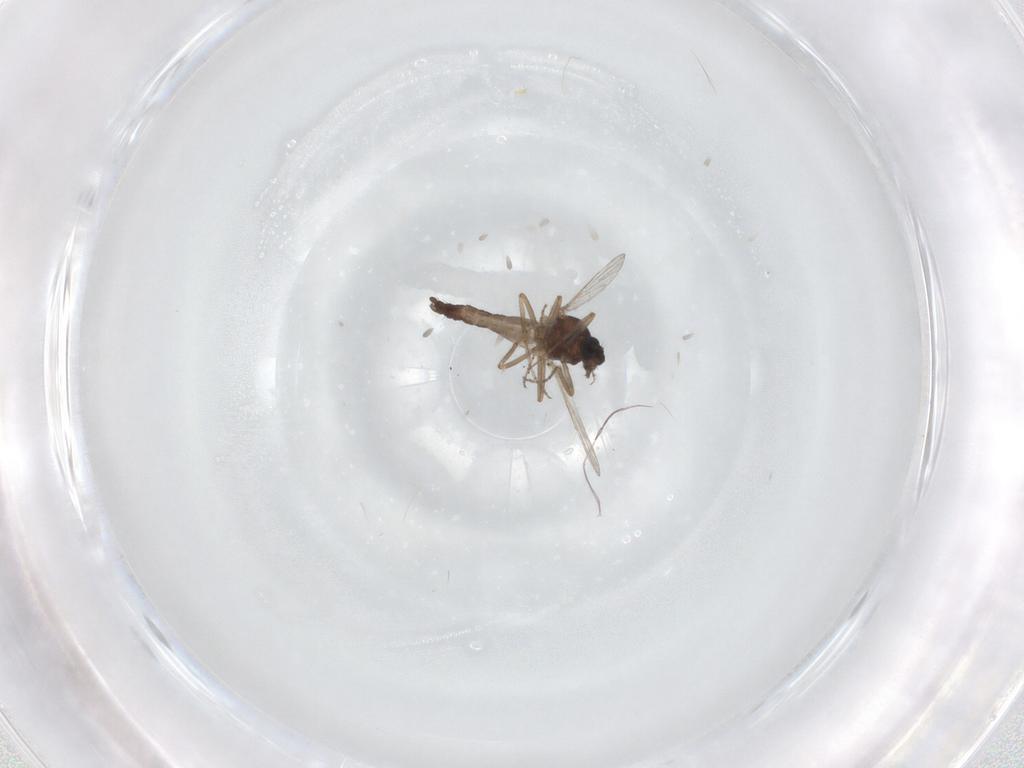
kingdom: Animalia
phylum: Arthropoda
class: Insecta
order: Diptera
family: Ceratopogonidae
